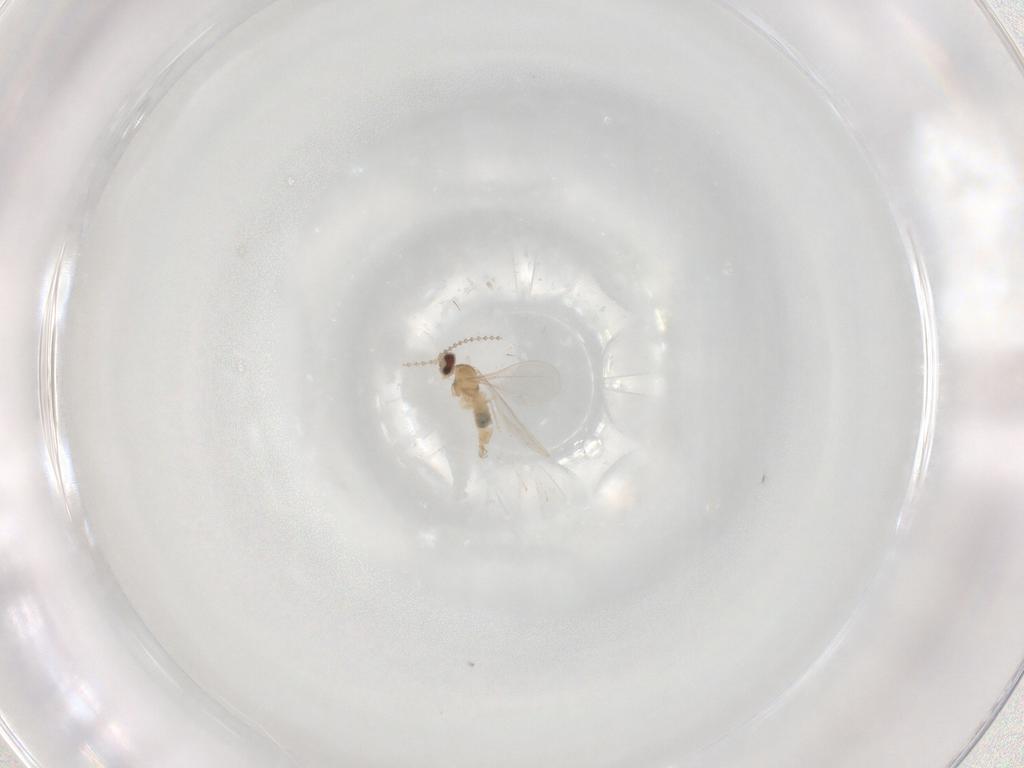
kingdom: Animalia
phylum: Arthropoda
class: Insecta
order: Diptera
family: Cecidomyiidae
